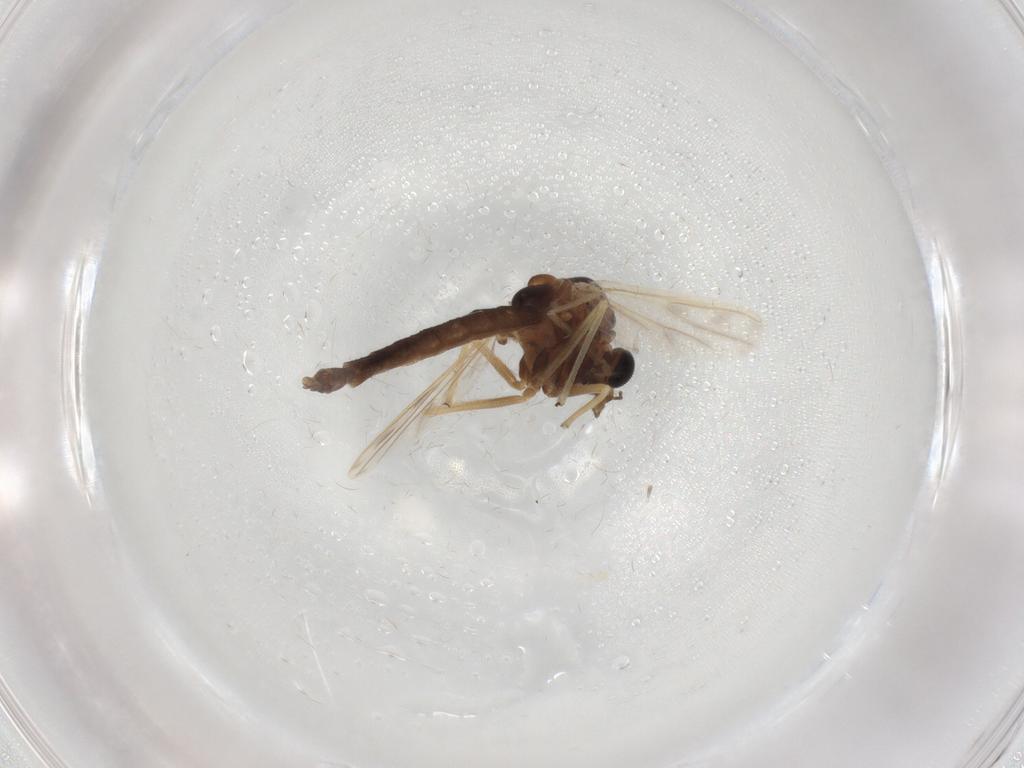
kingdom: Animalia
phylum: Arthropoda
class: Insecta
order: Diptera
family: Chironomidae
